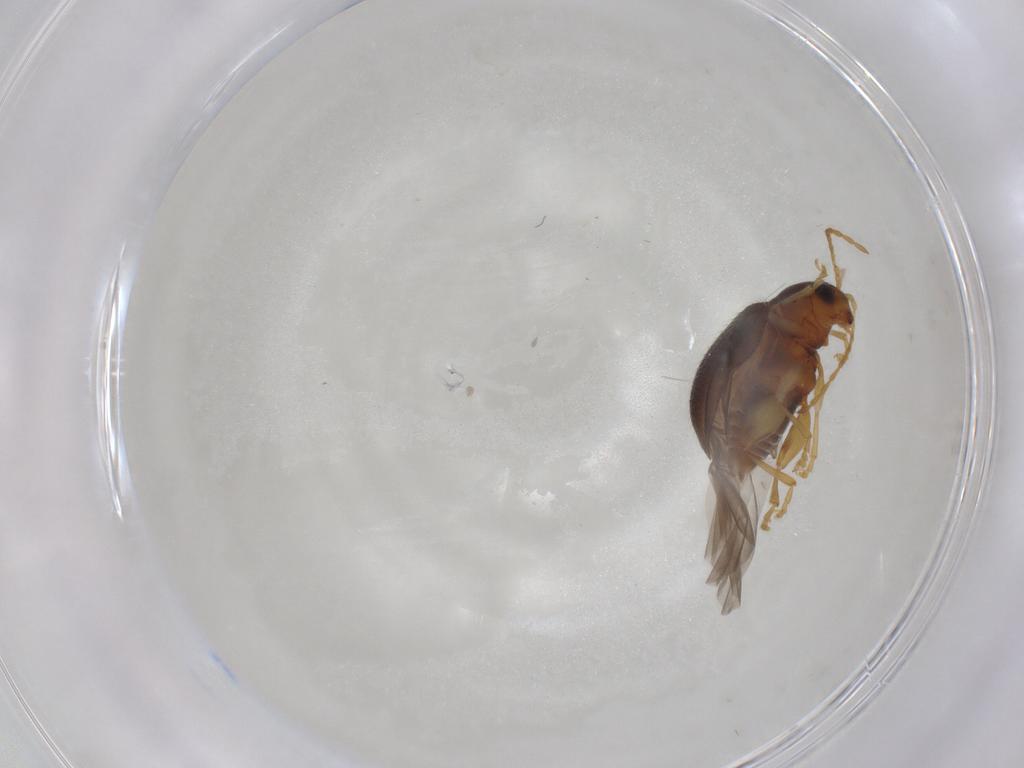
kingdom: Animalia
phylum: Arthropoda
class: Insecta
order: Coleoptera
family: Chrysomelidae
